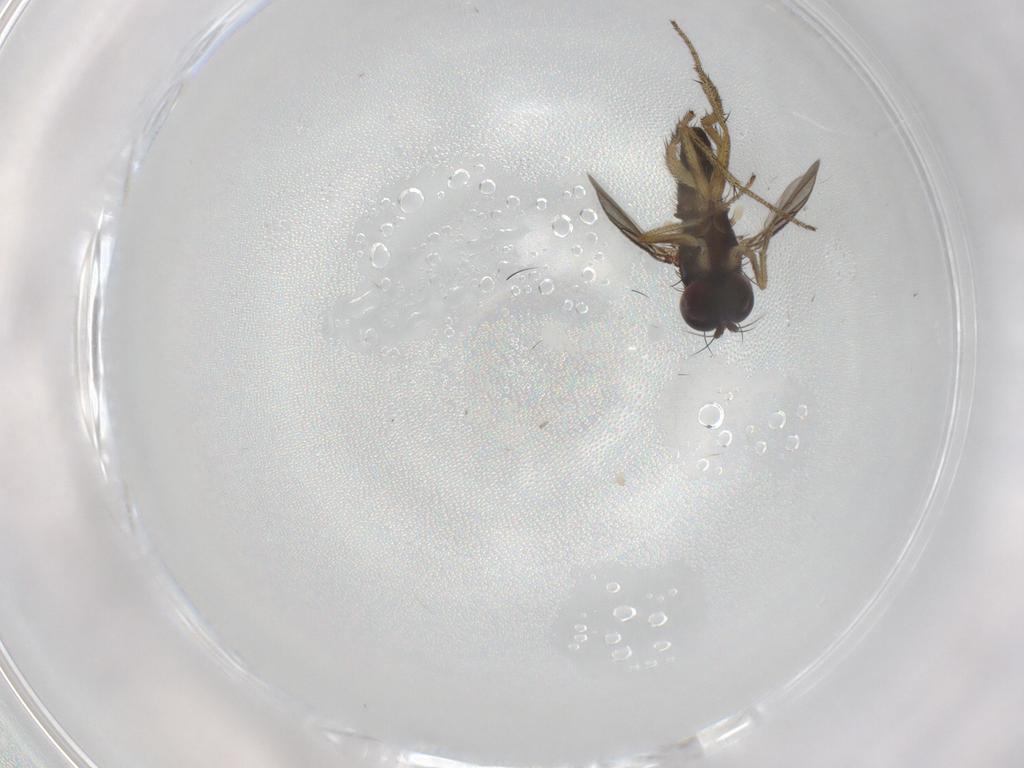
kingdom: Animalia
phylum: Arthropoda
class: Insecta
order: Diptera
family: Dolichopodidae
